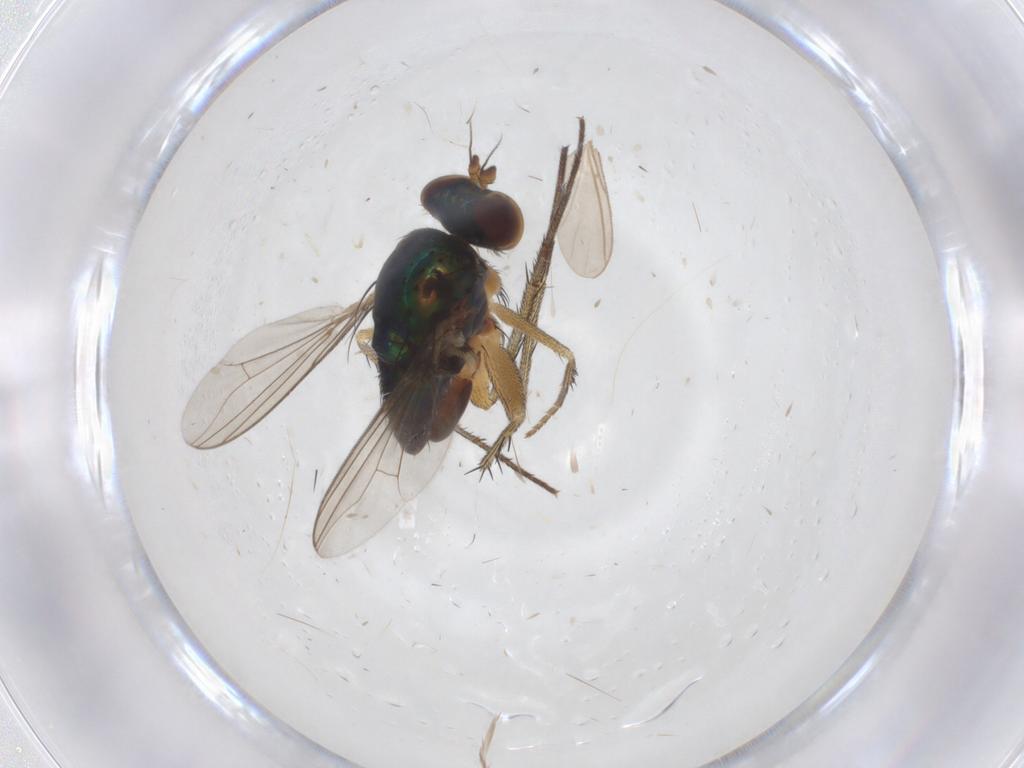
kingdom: Animalia
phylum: Arthropoda
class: Insecta
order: Diptera
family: Dolichopodidae
